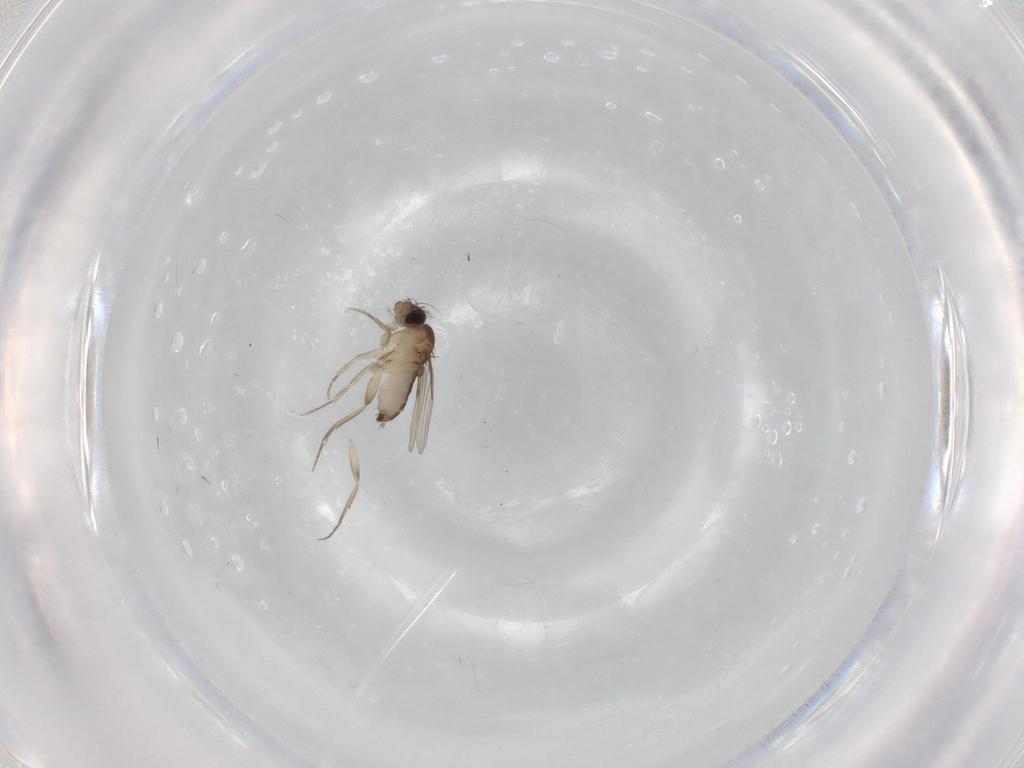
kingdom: Animalia
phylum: Arthropoda
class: Insecta
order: Diptera
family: Phoridae
